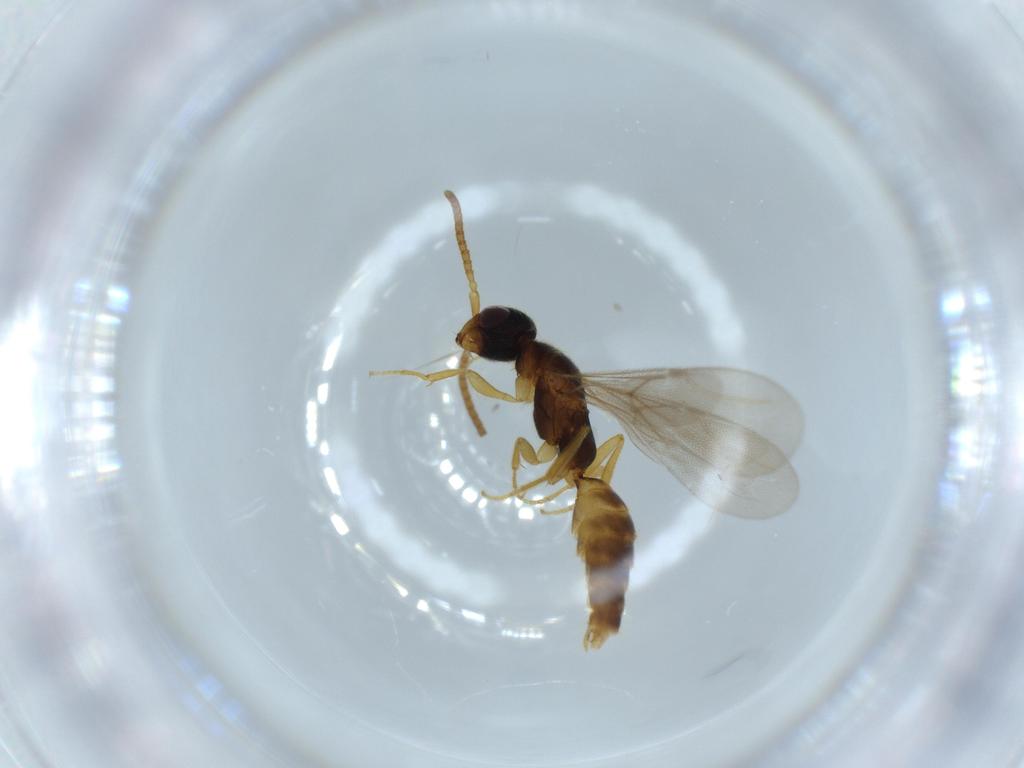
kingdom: Animalia
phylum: Arthropoda
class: Insecta
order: Hymenoptera
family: Bethylidae
